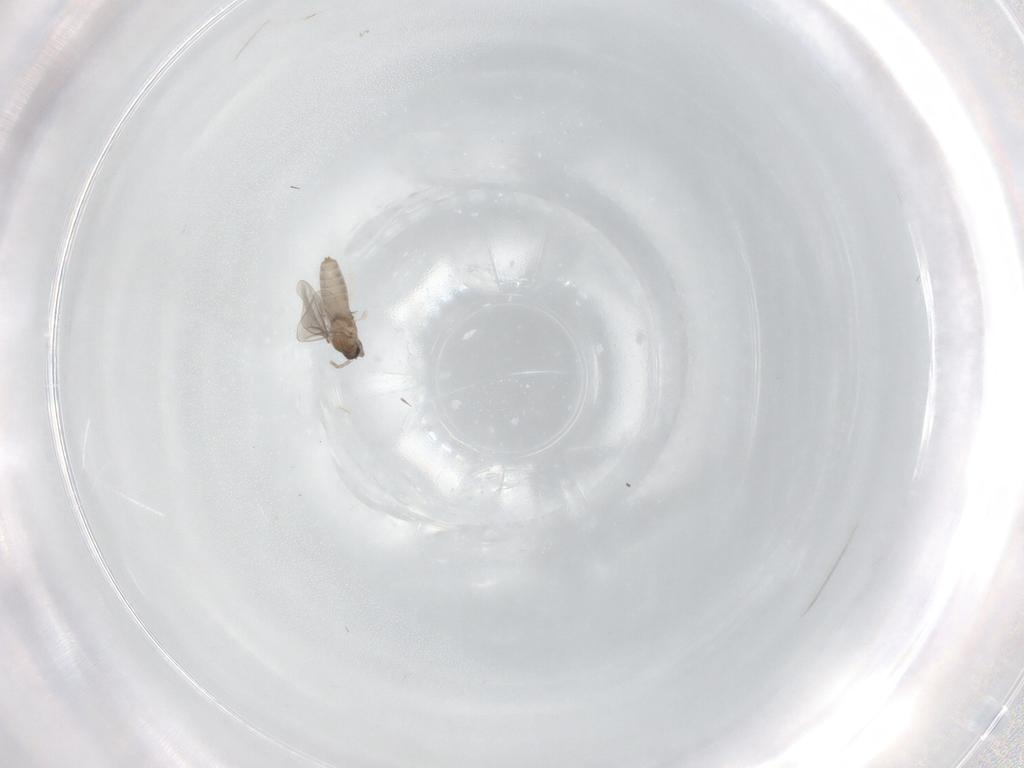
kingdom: Animalia
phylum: Arthropoda
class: Insecta
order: Diptera
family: Cecidomyiidae
